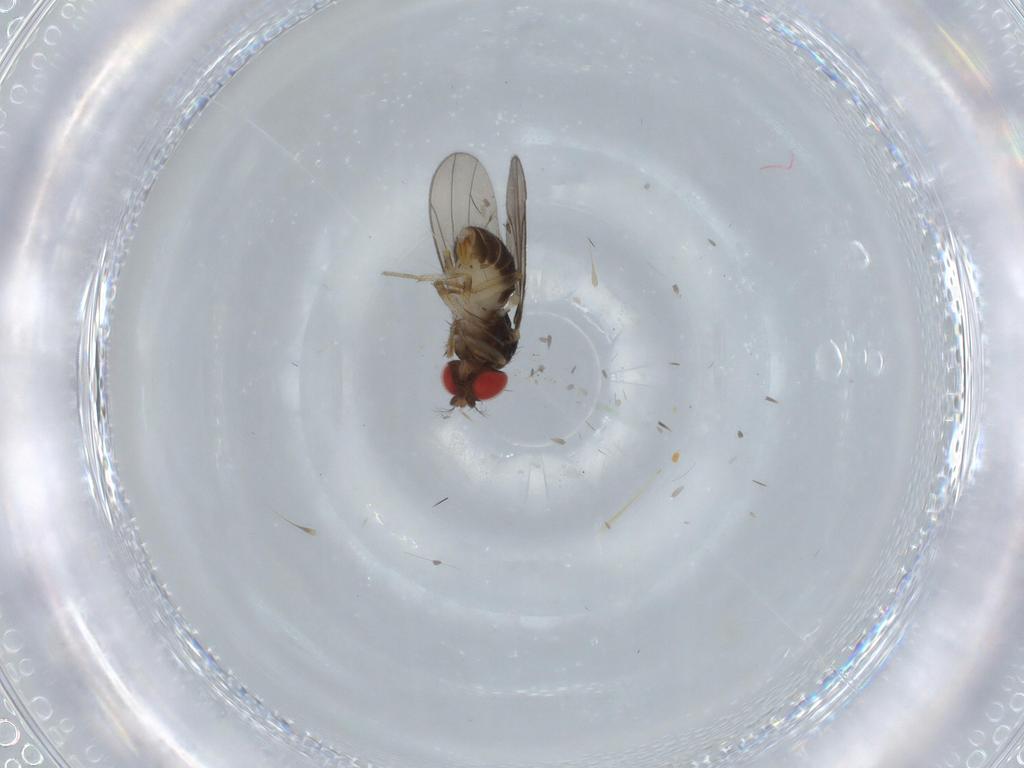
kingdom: Animalia
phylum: Arthropoda
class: Insecta
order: Diptera
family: Drosophilidae
